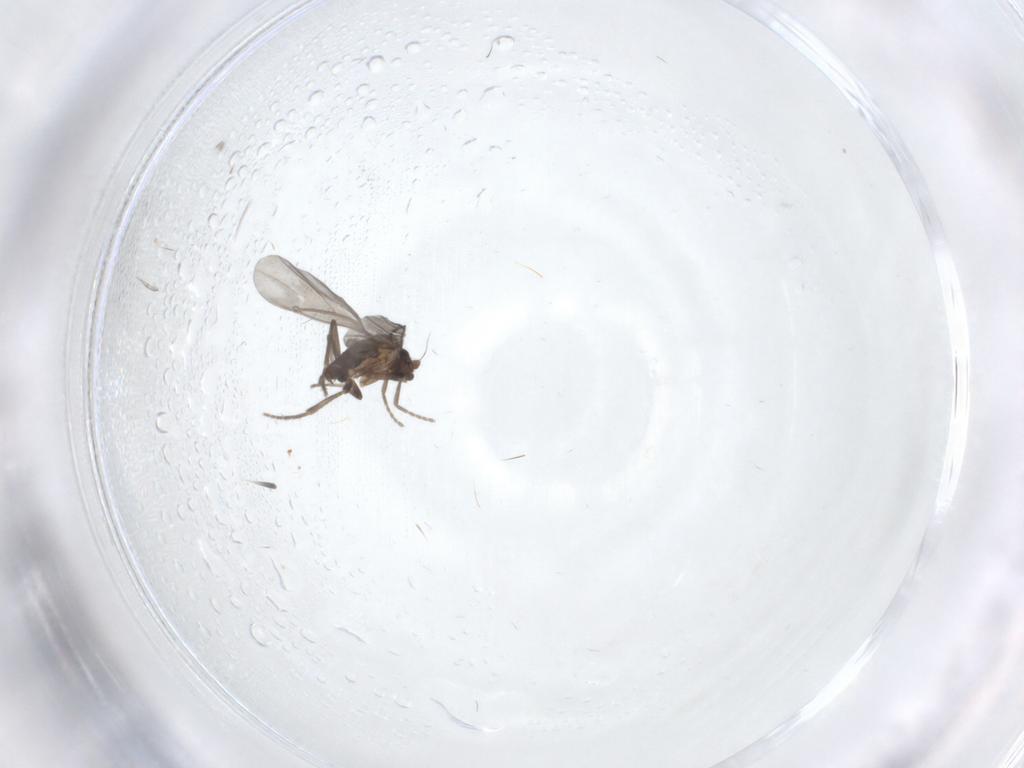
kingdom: Animalia
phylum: Arthropoda
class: Insecta
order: Diptera
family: Phoridae
